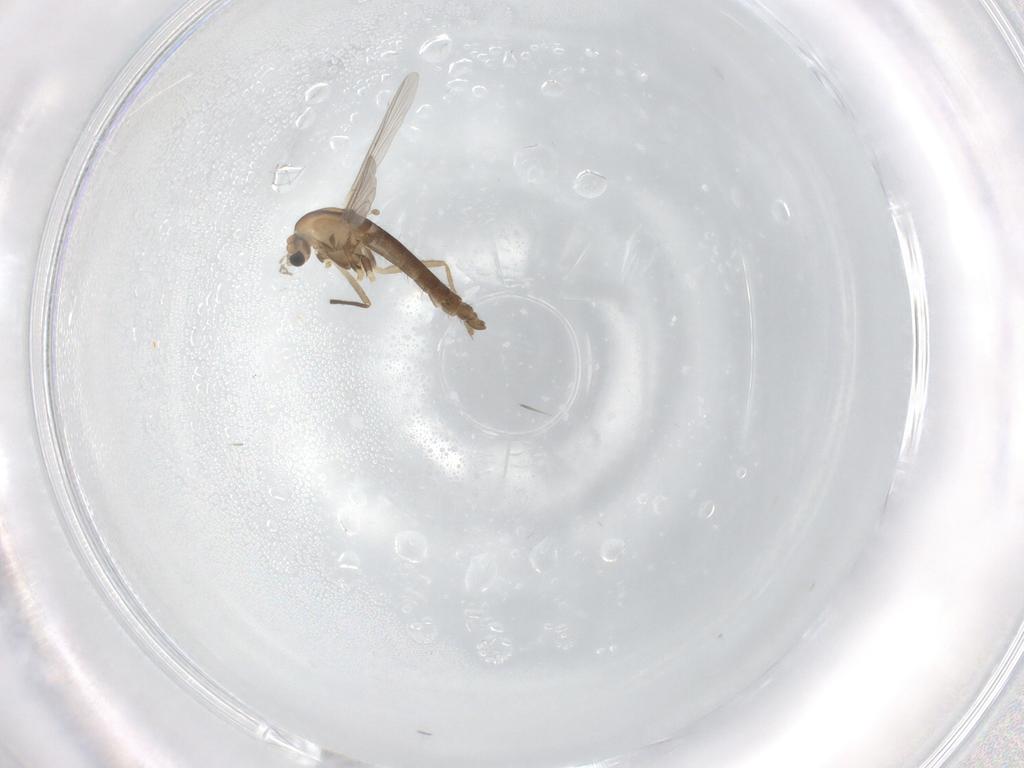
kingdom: Animalia
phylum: Arthropoda
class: Insecta
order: Diptera
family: Chironomidae
